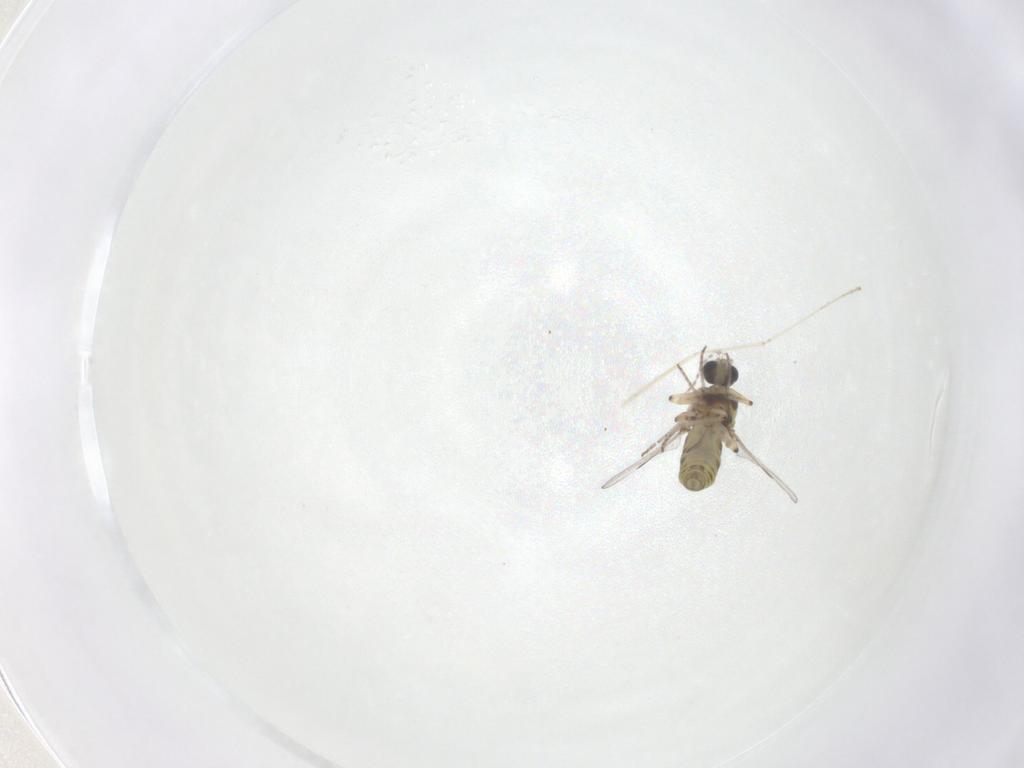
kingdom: Animalia
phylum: Arthropoda
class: Insecta
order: Diptera
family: Ceratopogonidae
